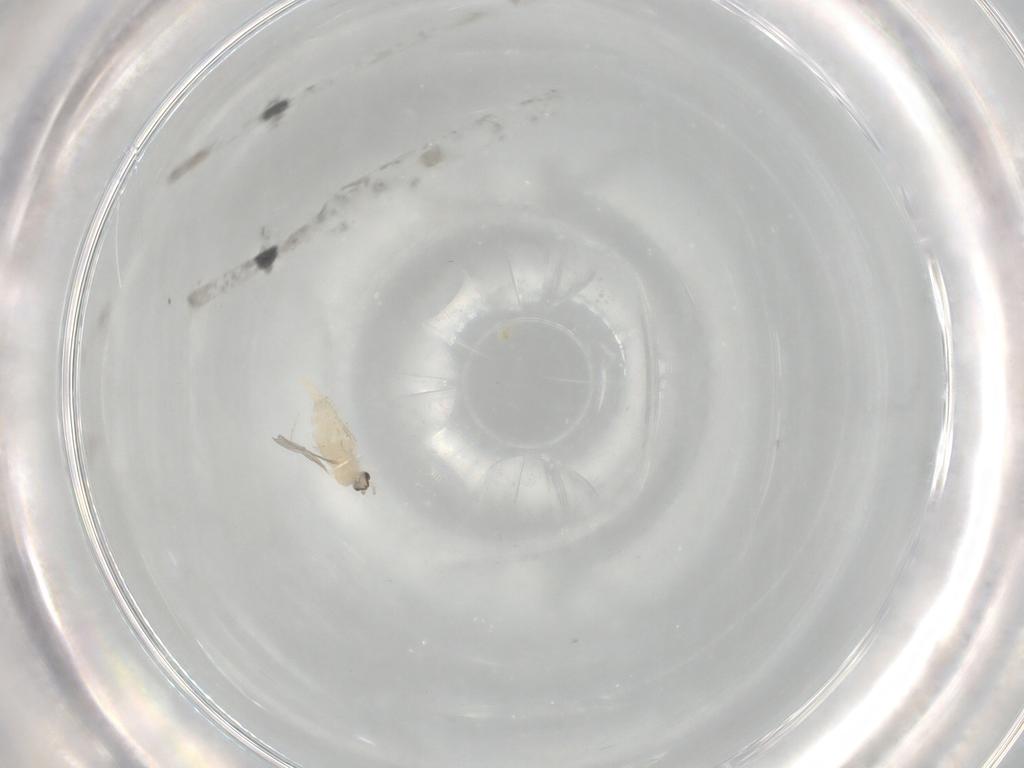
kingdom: Animalia
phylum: Arthropoda
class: Insecta
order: Diptera
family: Cecidomyiidae
